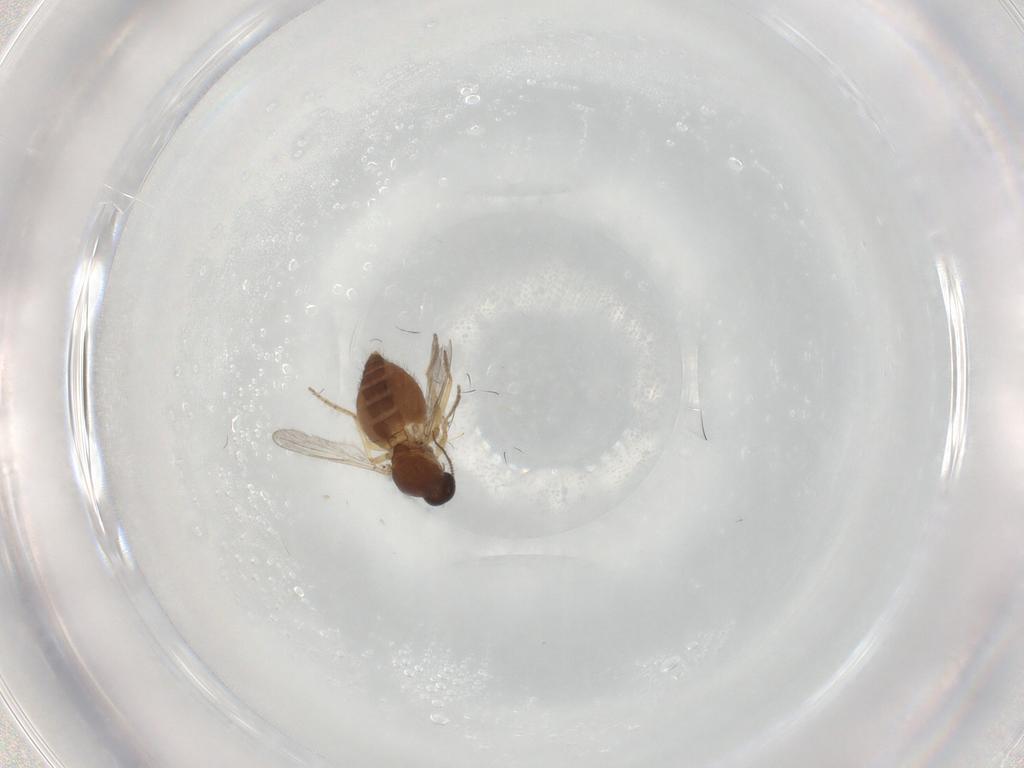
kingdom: Animalia
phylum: Arthropoda
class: Insecta
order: Diptera
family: Ceratopogonidae
